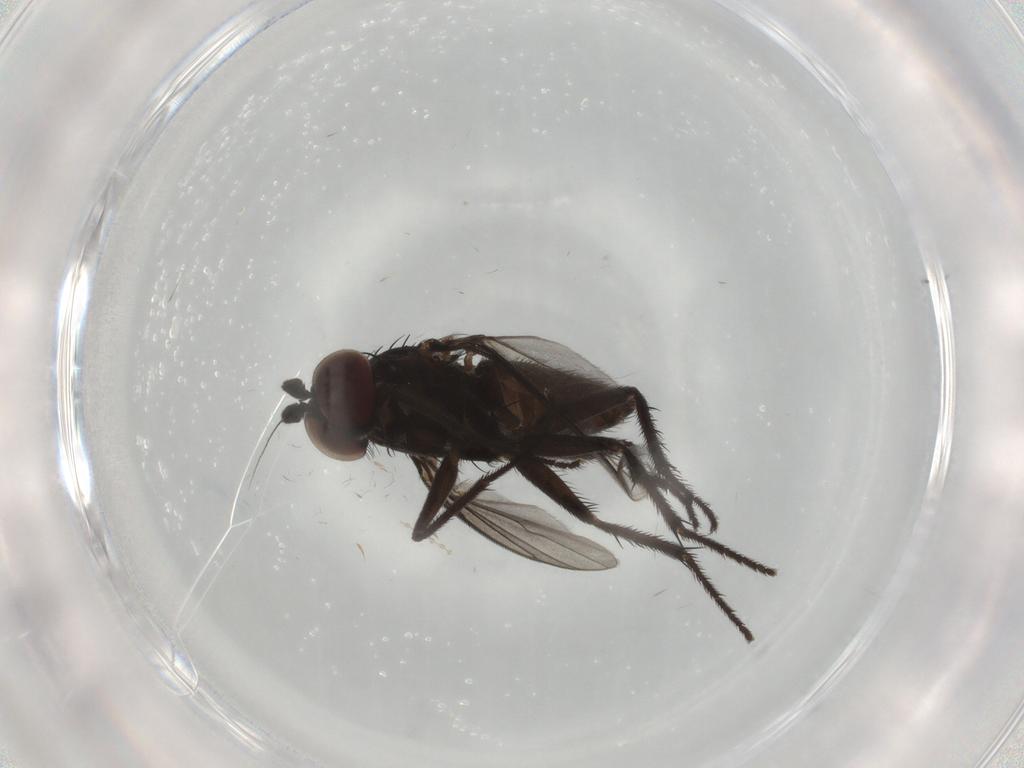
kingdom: Animalia
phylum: Arthropoda
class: Insecta
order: Diptera
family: Dolichopodidae
